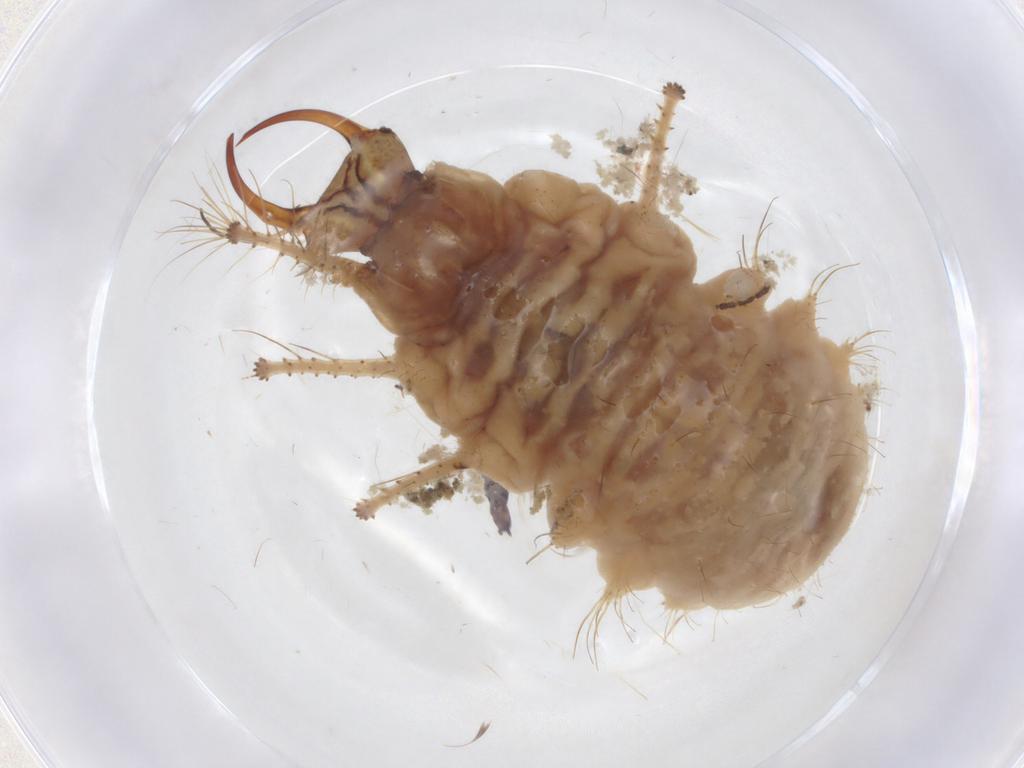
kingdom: Animalia
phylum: Arthropoda
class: Insecta
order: Neuroptera
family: Chrysopidae
